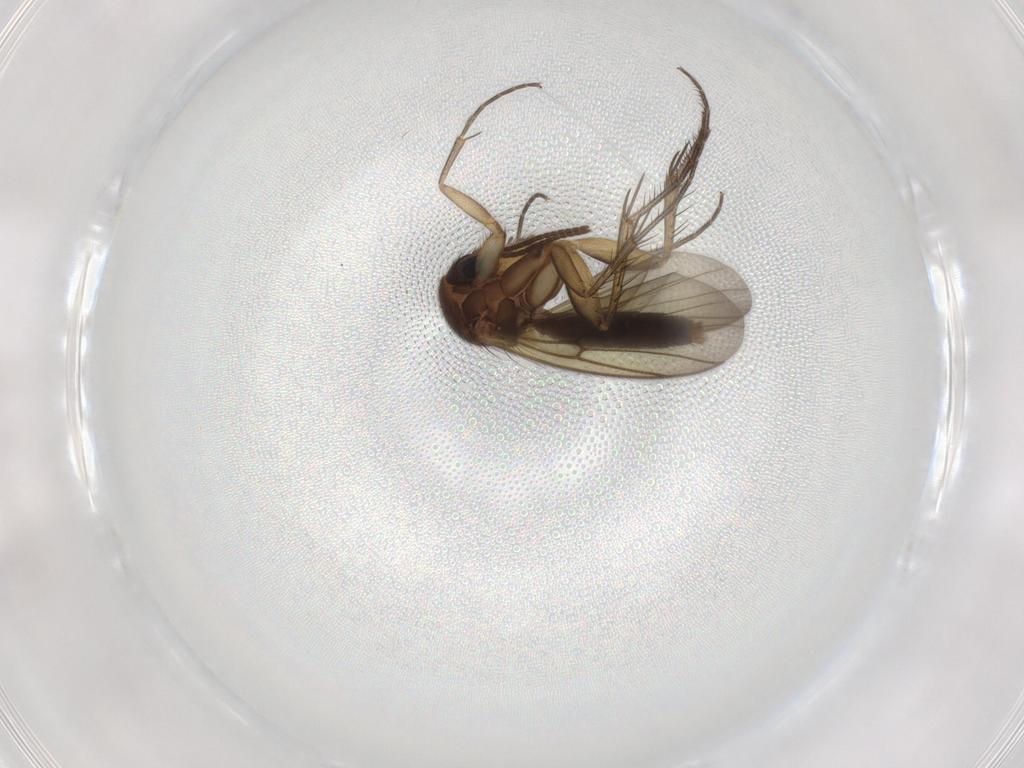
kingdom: Animalia
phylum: Arthropoda
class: Insecta
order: Diptera
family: Mycetophilidae
